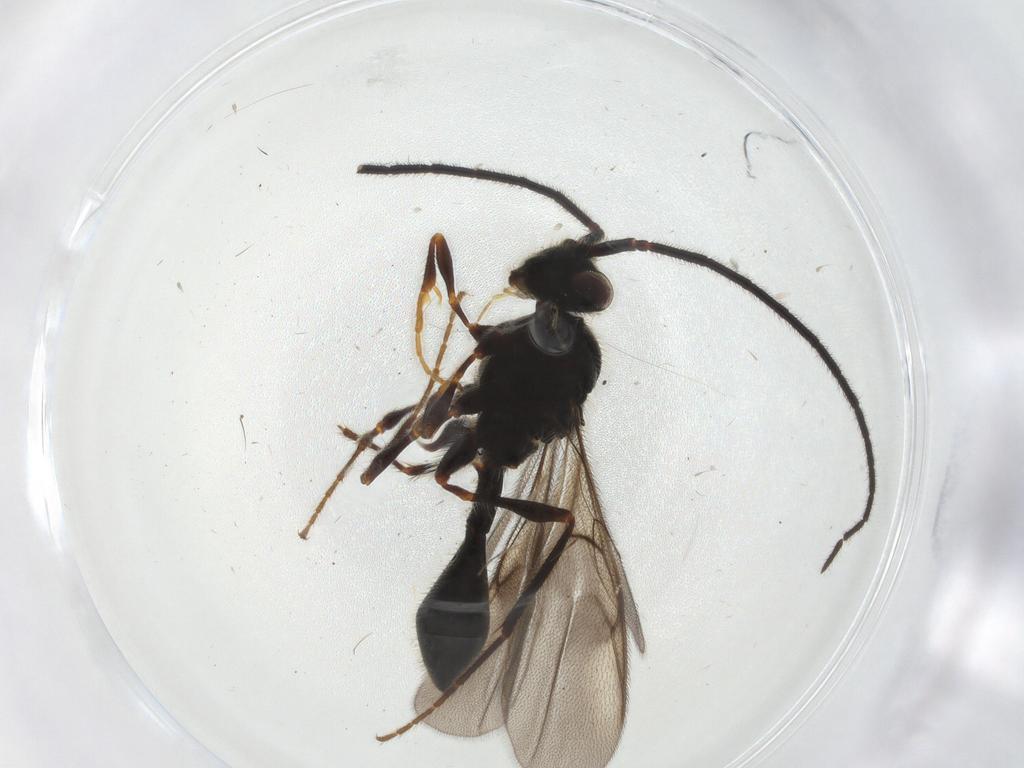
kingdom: Animalia
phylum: Arthropoda
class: Insecta
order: Hymenoptera
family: Diapriidae
